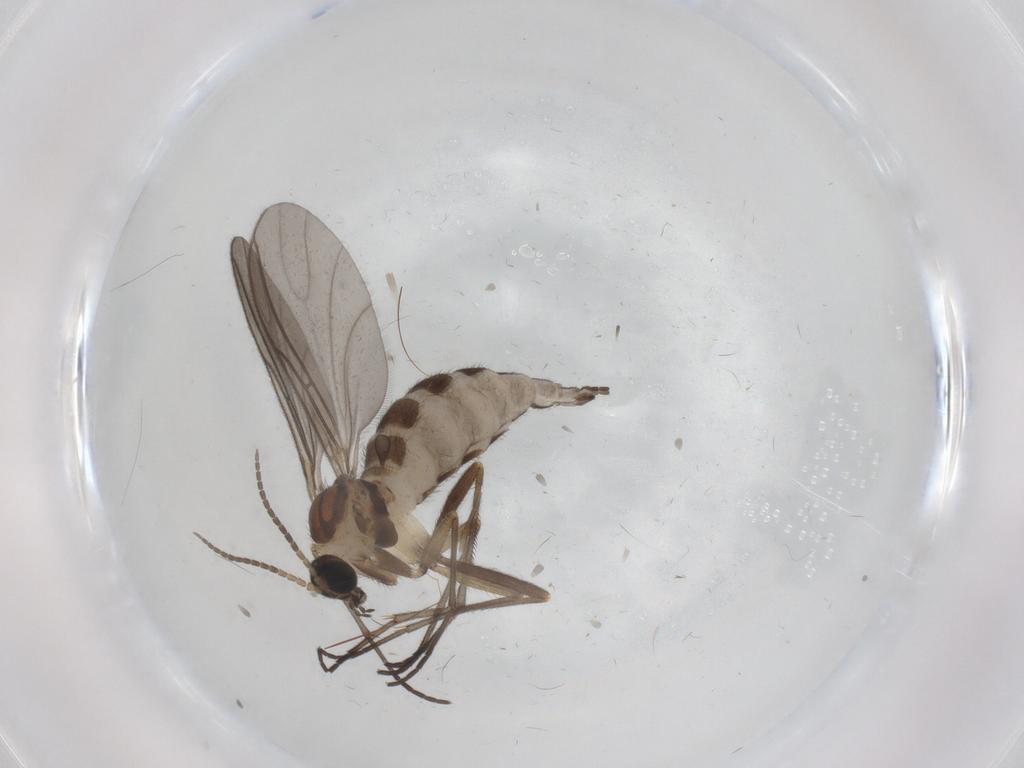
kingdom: Animalia
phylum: Arthropoda
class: Insecta
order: Diptera
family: Sciaridae
